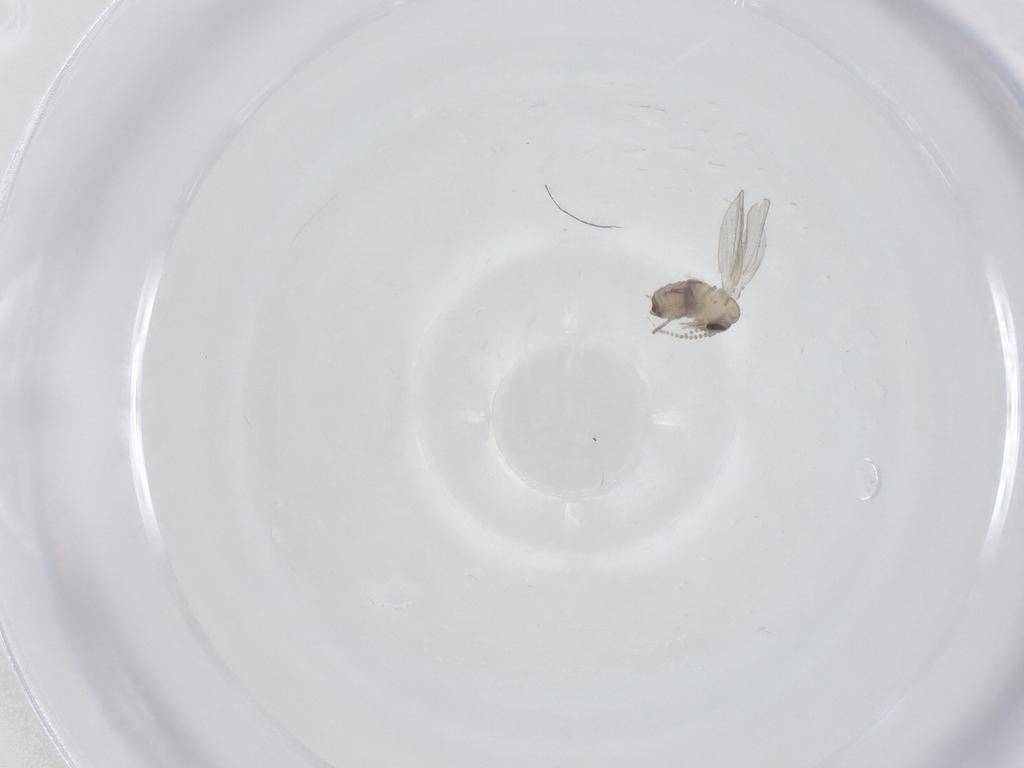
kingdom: Animalia
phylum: Arthropoda
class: Insecta
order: Diptera
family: Psychodidae
